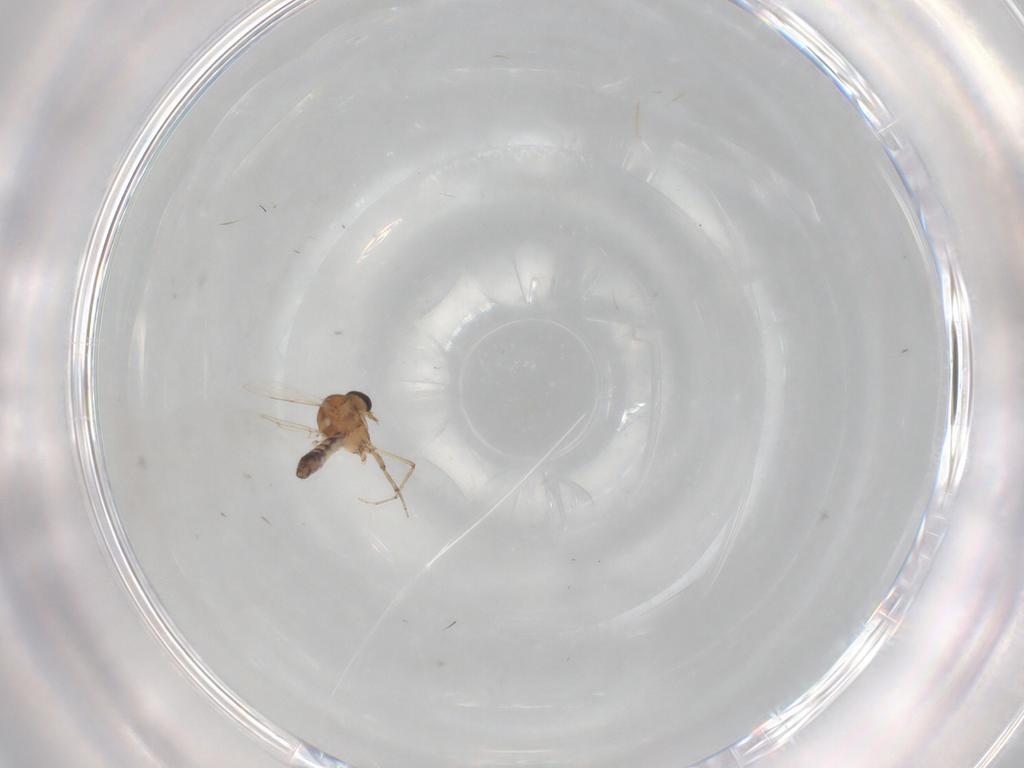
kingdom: Animalia
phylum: Arthropoda
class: Insecta
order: Diptera
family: Ceratopogonidae
